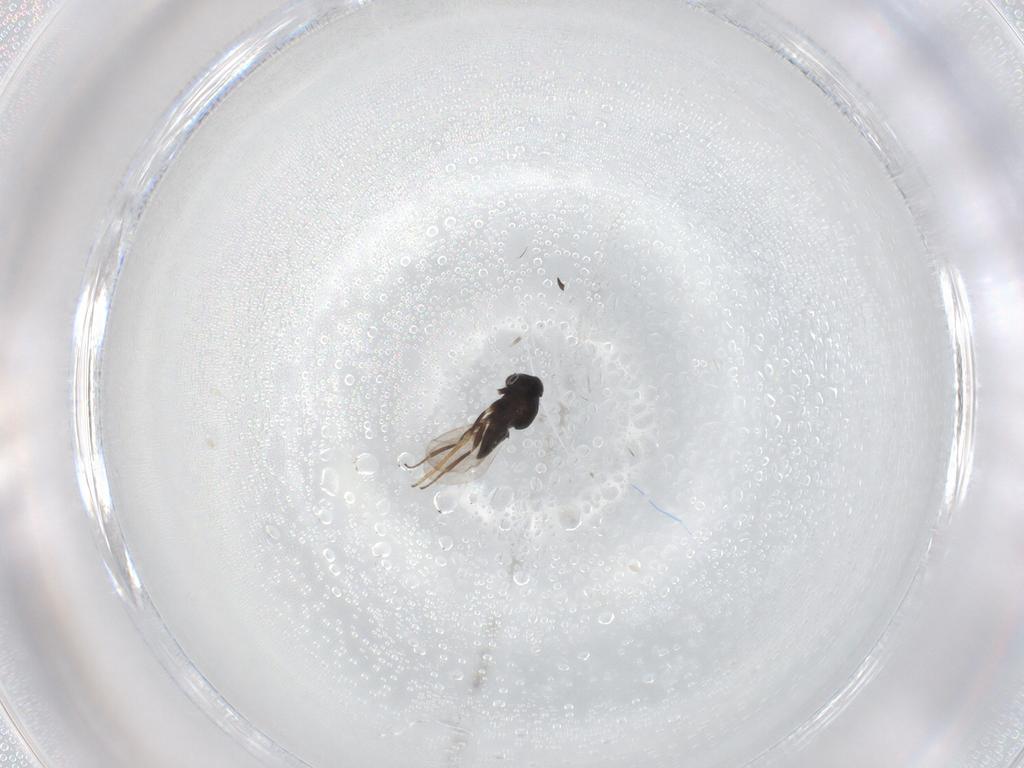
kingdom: Animalia
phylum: Arthropoda
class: Insecta
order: Hymenoptera
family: Encyrtidae
